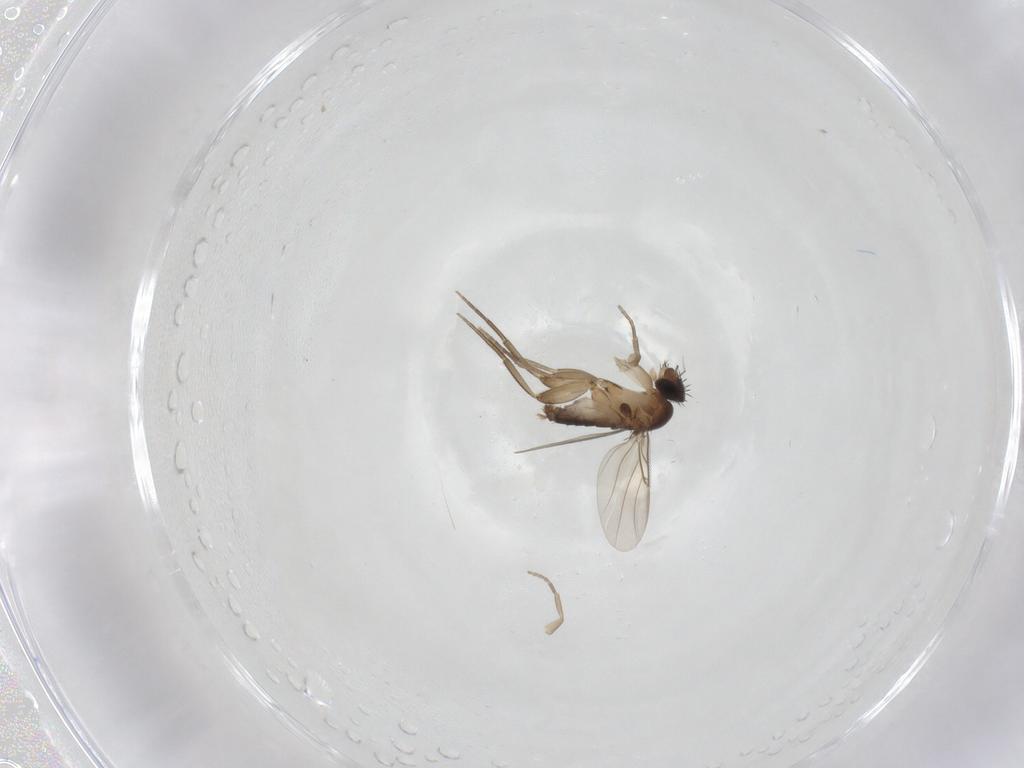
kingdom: Animalia
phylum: Arthropoda
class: Insecta
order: Diptera
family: Phoridae
